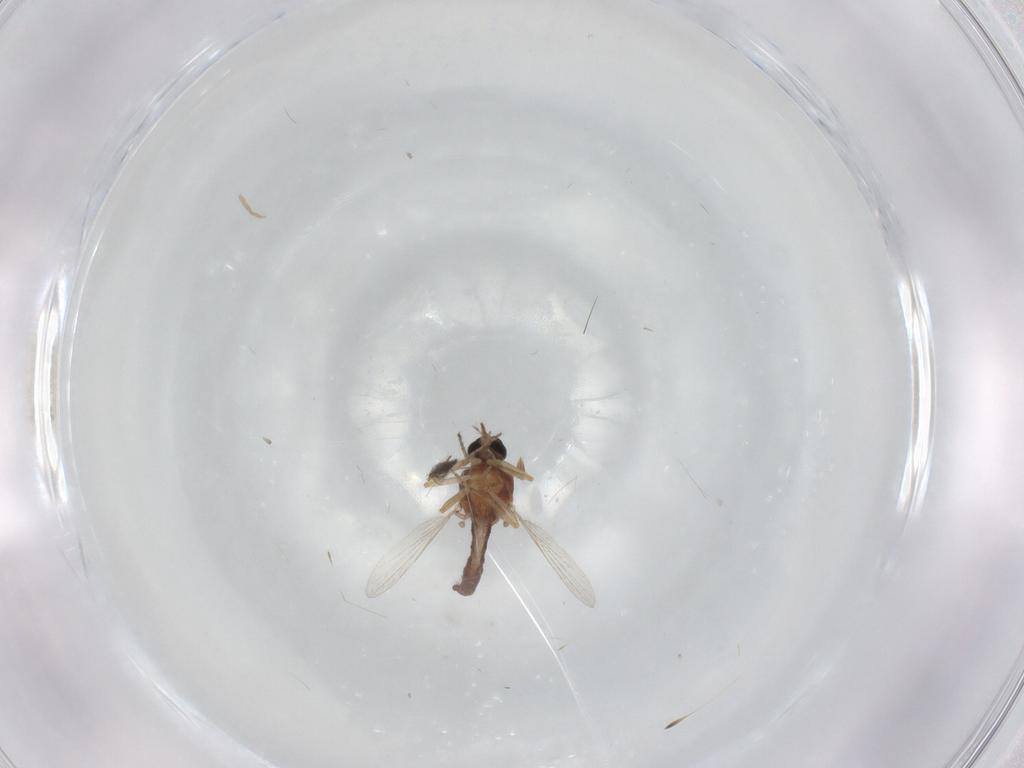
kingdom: Animalia
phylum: Arthropoda
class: Insecta
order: Diptera
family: Ceratopogonidae
